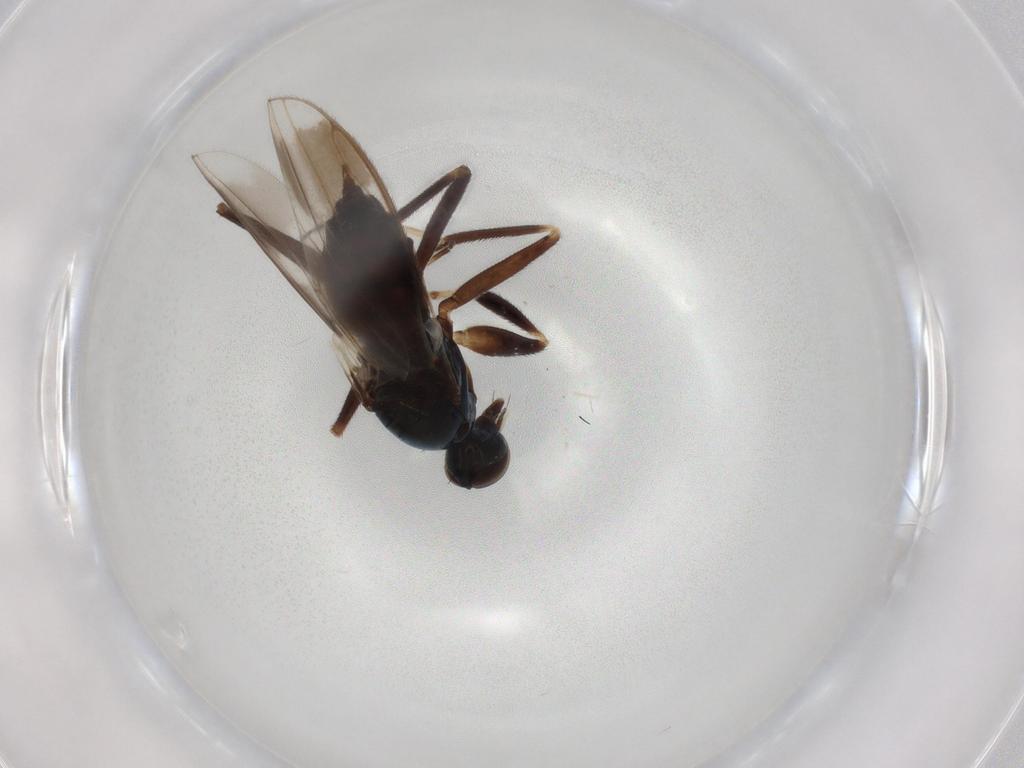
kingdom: Animalia
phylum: Arthropoda
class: Insecta
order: Diptera
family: Hybotidae
